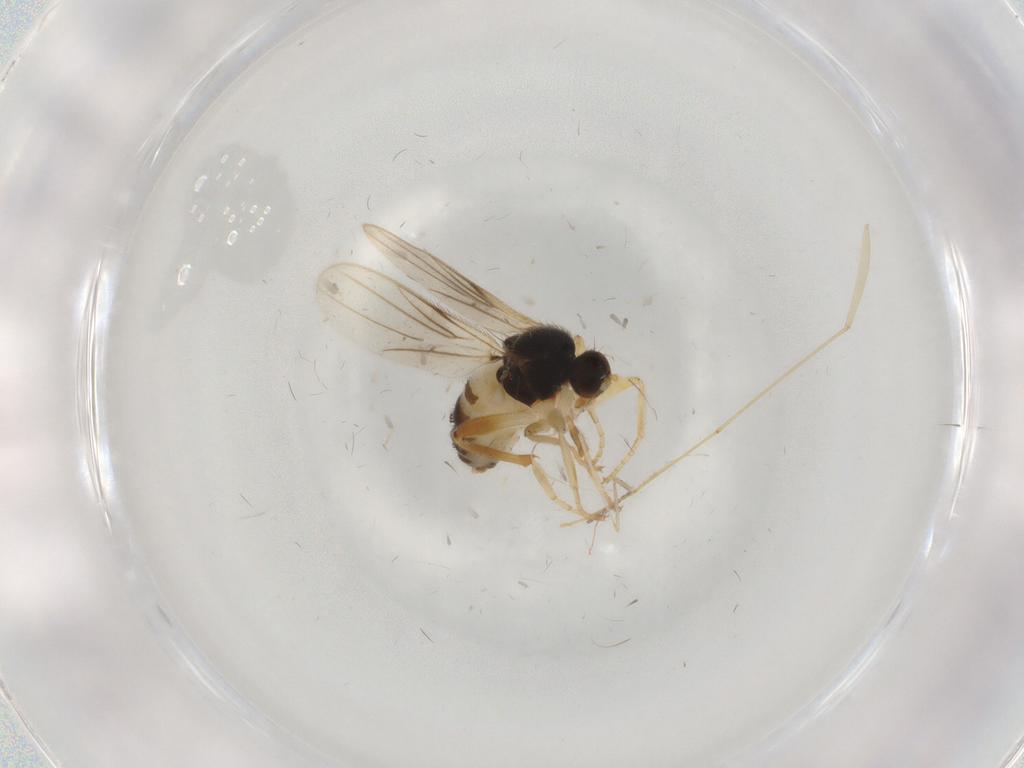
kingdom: Animalia
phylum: Arthropoda
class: Insecta
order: Diptera
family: Hybotidae
